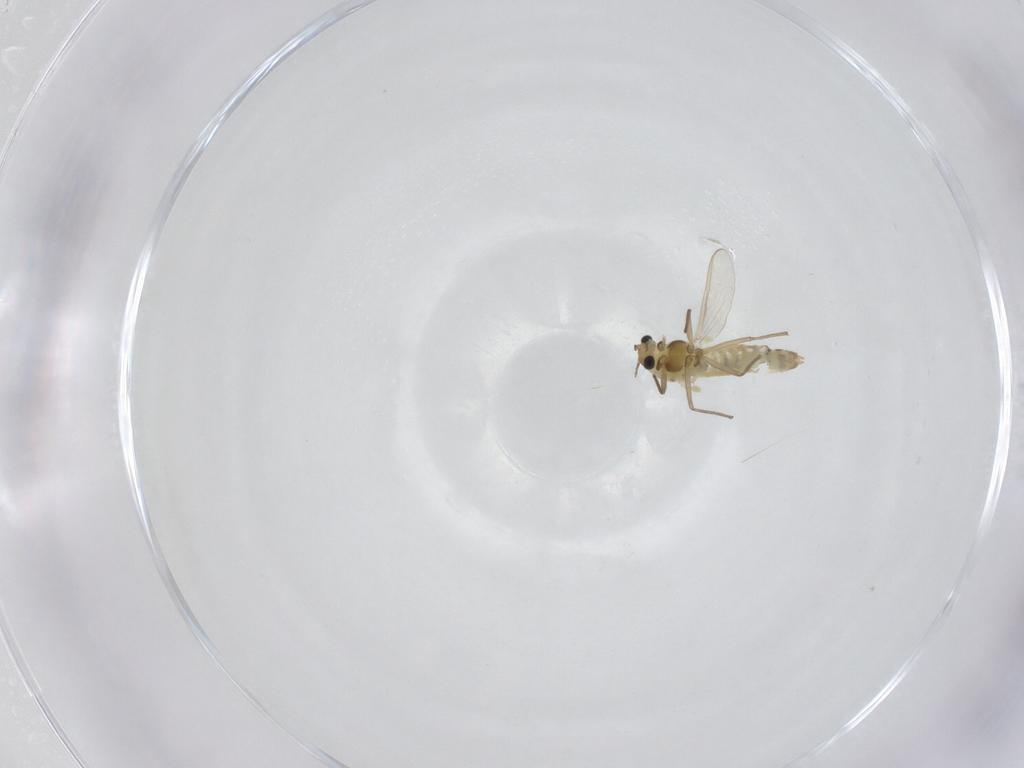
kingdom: Animalia
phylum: Arthropoda
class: Insecta
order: Diptera
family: Chironomidae
